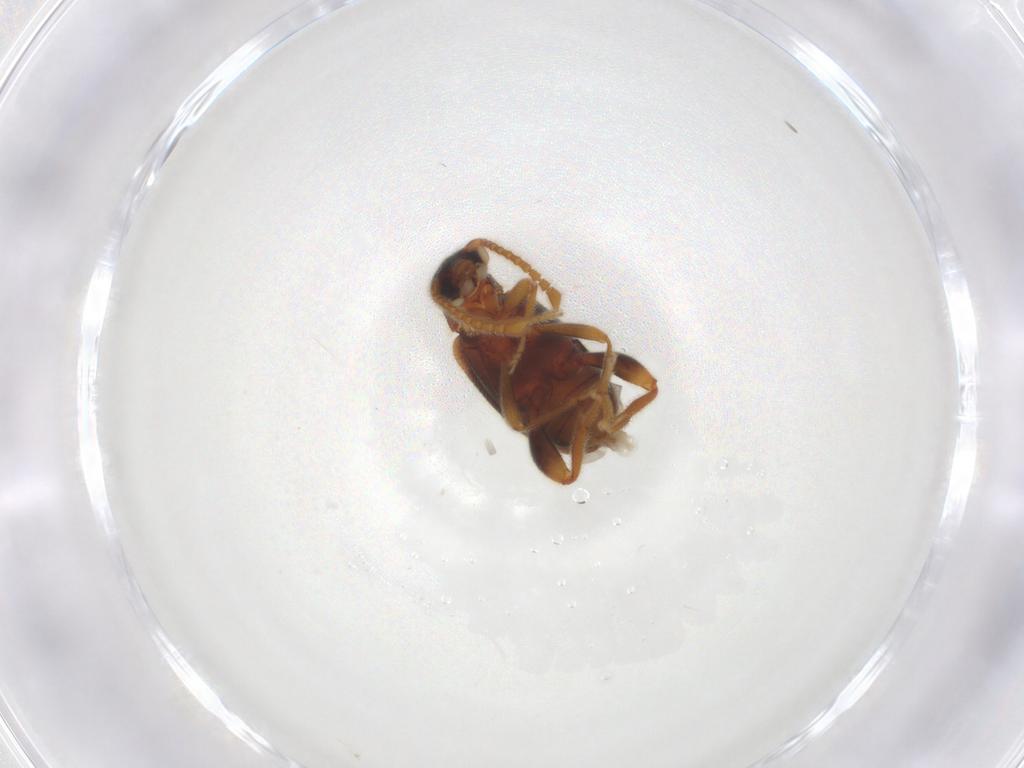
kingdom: Animalia
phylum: Arthropoda
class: Insecta
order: Coleoptera
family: Aderidae
